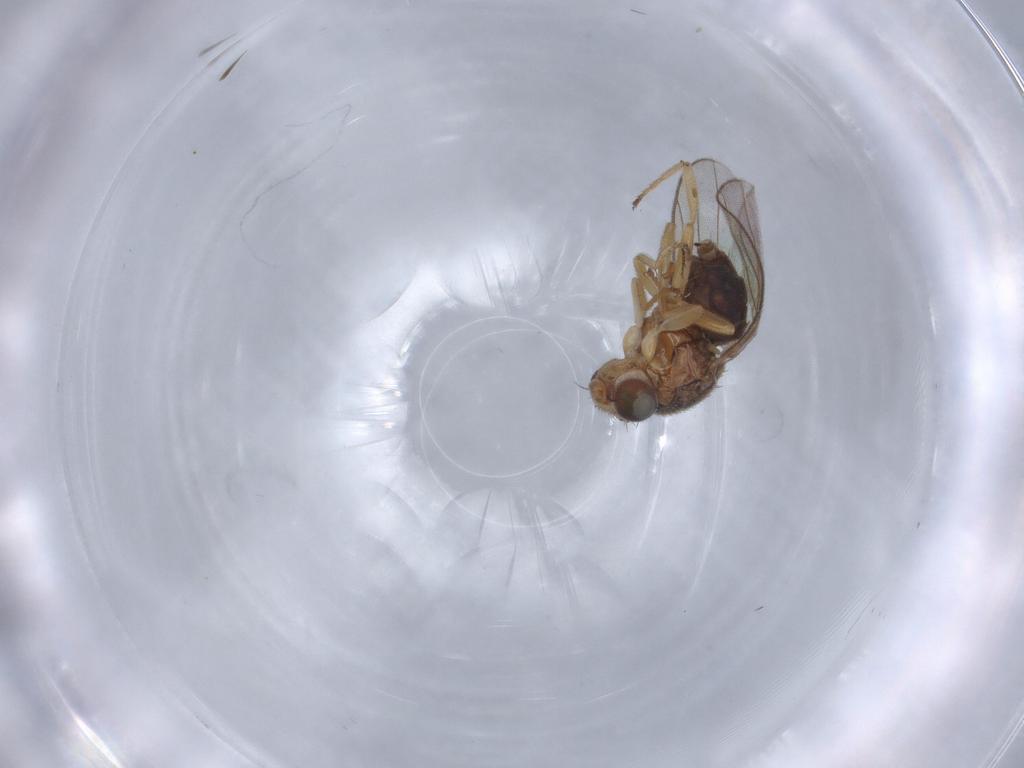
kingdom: Animalia
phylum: Arthropoda
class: Insecta
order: Diptera
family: Chloropidae
